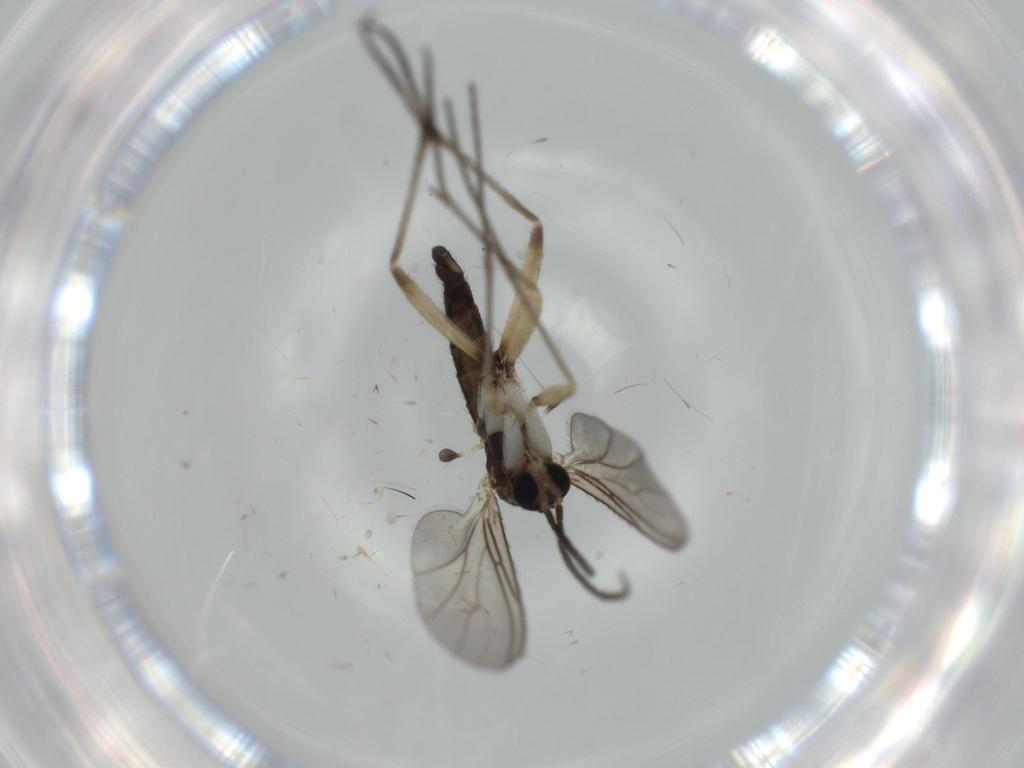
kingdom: Animalia
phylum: Arthropoda
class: Insecta
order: Diptera
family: Sciaridae
